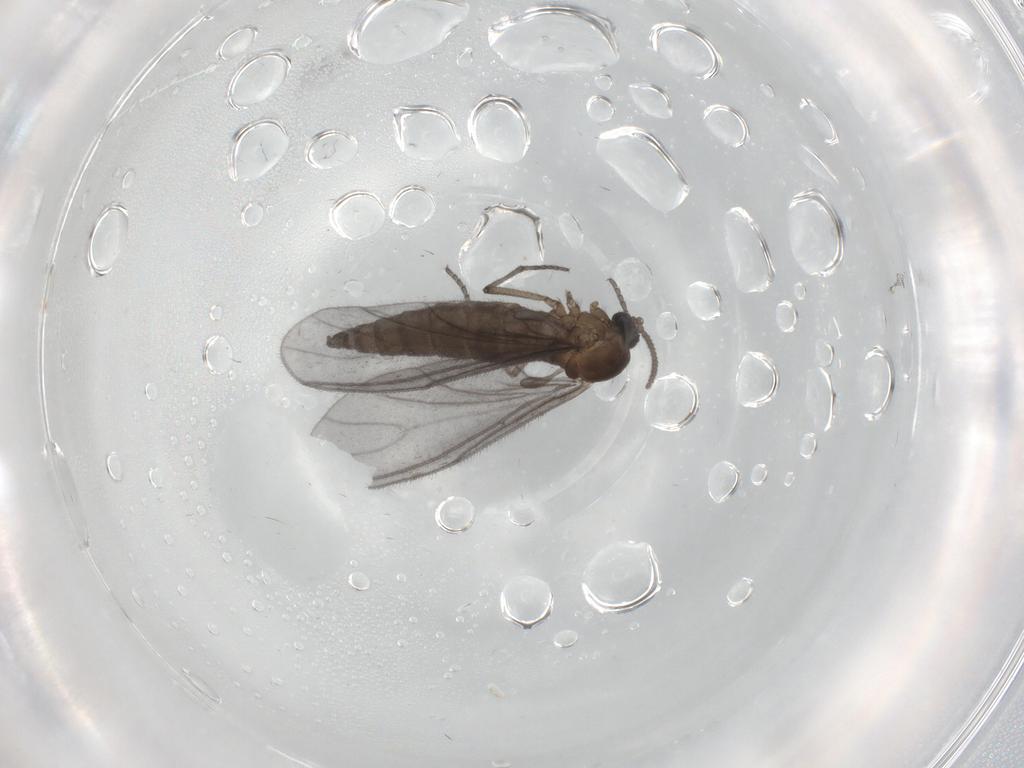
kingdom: Animalia
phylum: Arthropoda
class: Insecta
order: Diptera
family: Sciaridae
